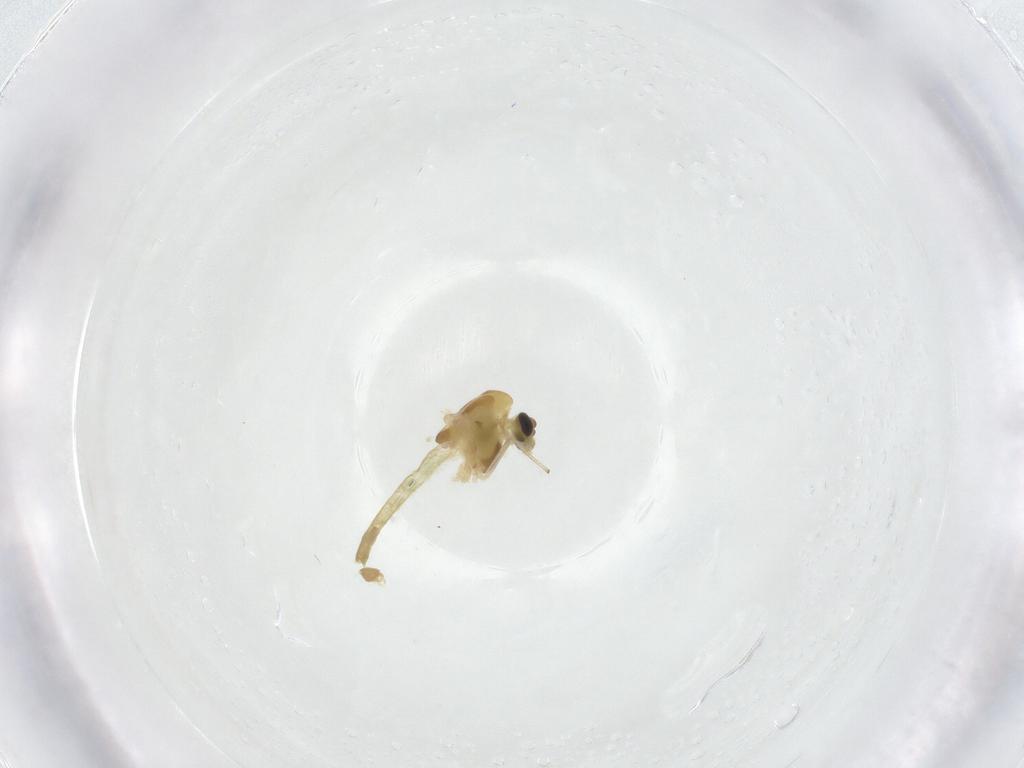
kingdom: Animalia
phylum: Arthropoda
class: Insecta
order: Diptera
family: Chironomidae
